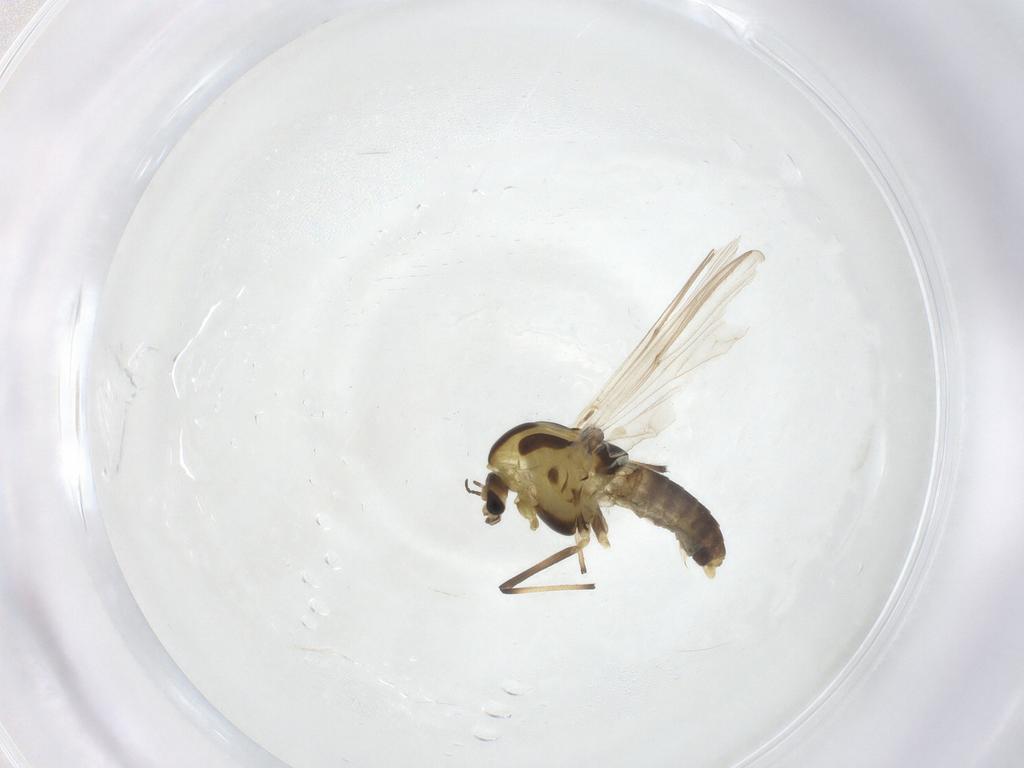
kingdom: Animalia
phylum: Arthropoda
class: Insecta
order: Diptera
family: Chironomidae
